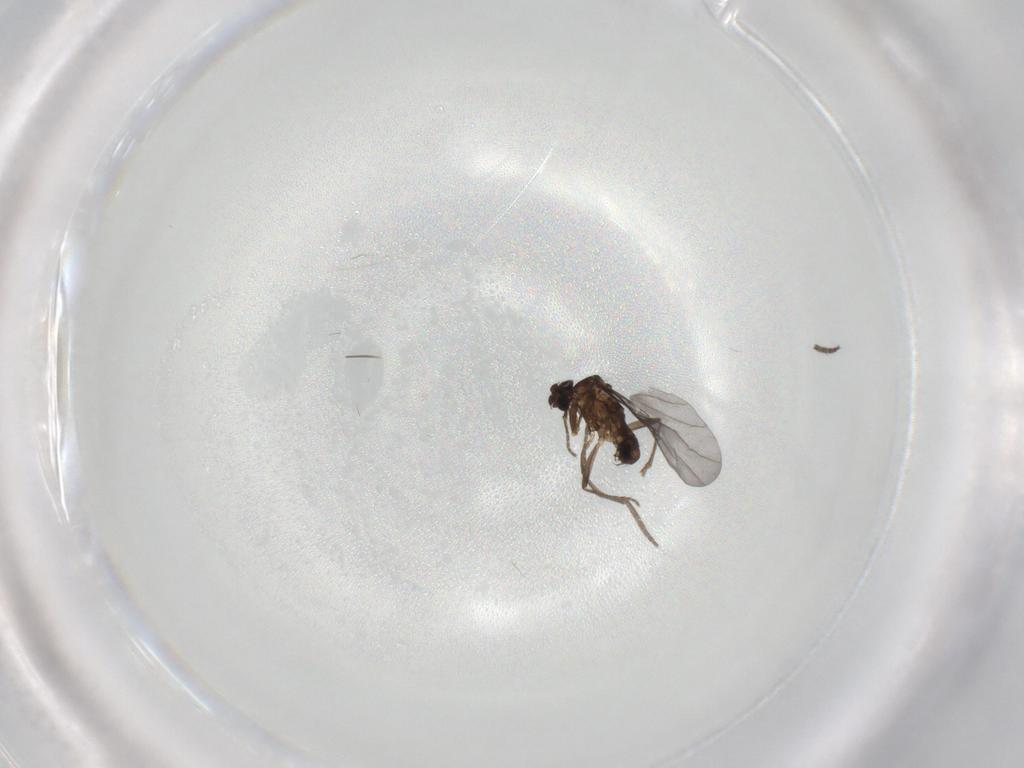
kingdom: Animalia
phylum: Arthropoda
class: Insecta
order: Diptera
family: Phoridae
